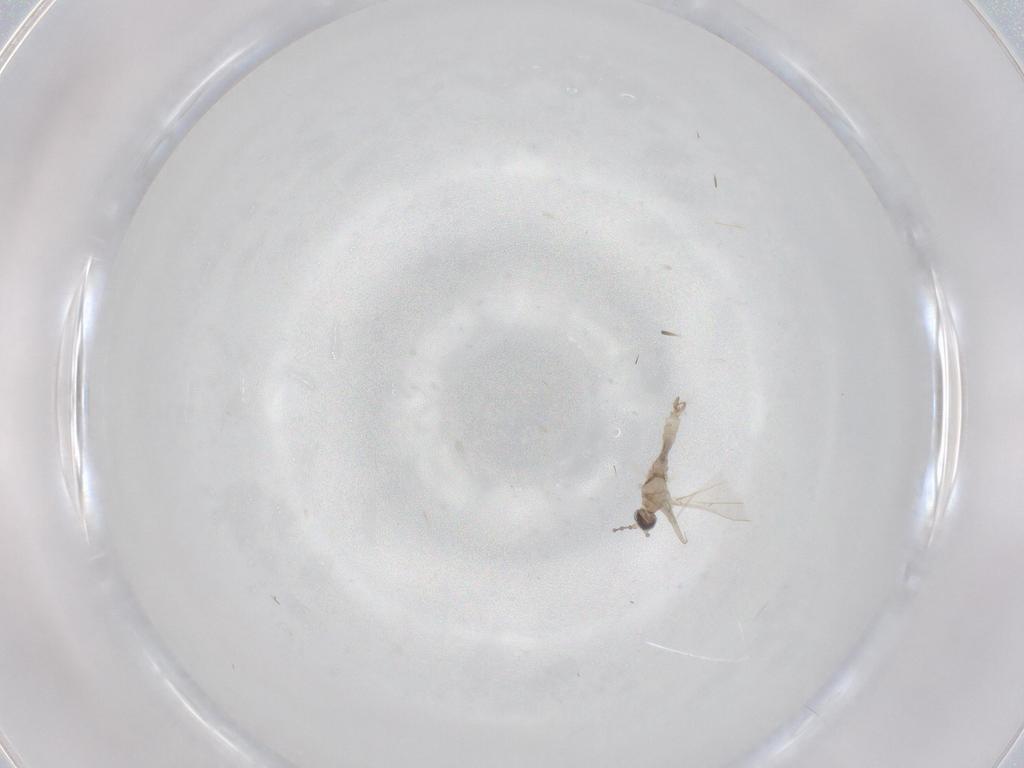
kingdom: Animalia
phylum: Arthropoda
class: Insecta
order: Diptera
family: Cecidomyiidae
